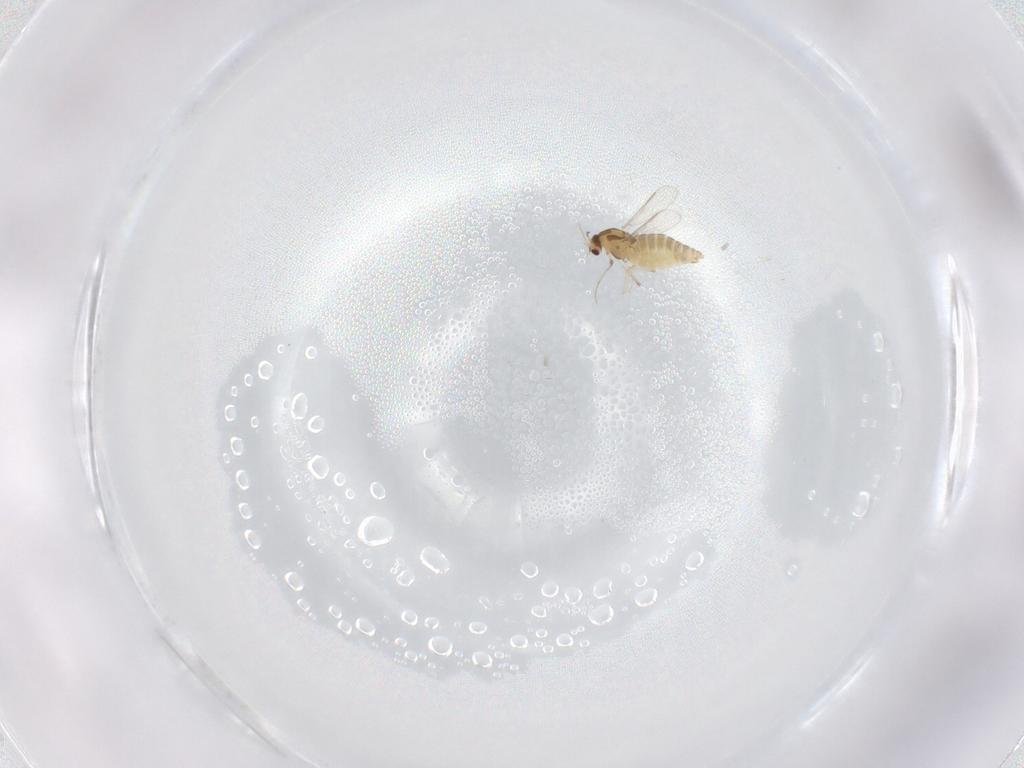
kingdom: Animalia
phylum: Arthropoda
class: Insecta
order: Diptera
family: Chironomidae
